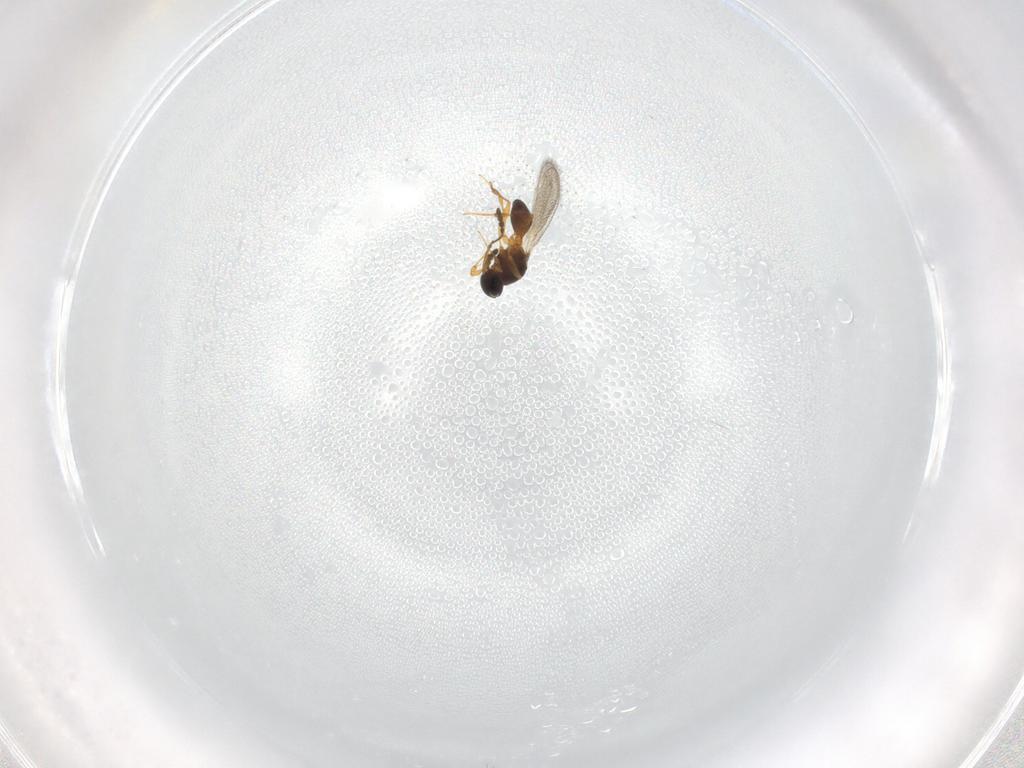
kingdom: Animalia
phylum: Arthropoda
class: Insecta
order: Hymenoptera
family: Platygastridae
